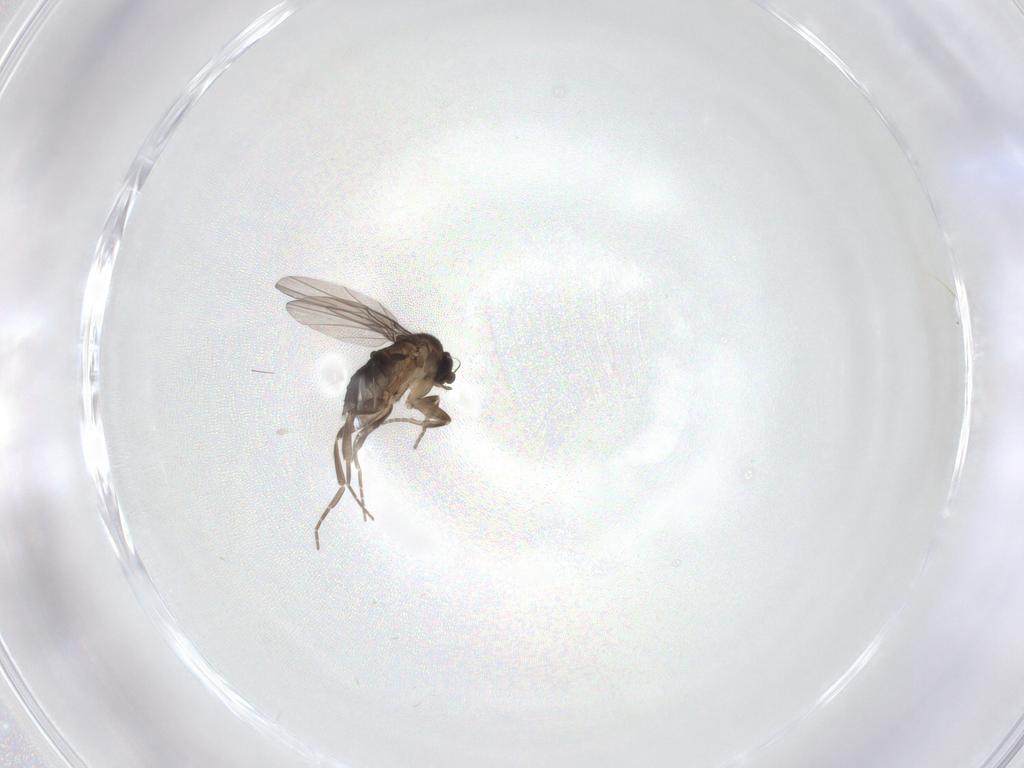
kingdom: Animalia
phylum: Arthropoda
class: Insecta
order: Diptera
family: Phoridae
